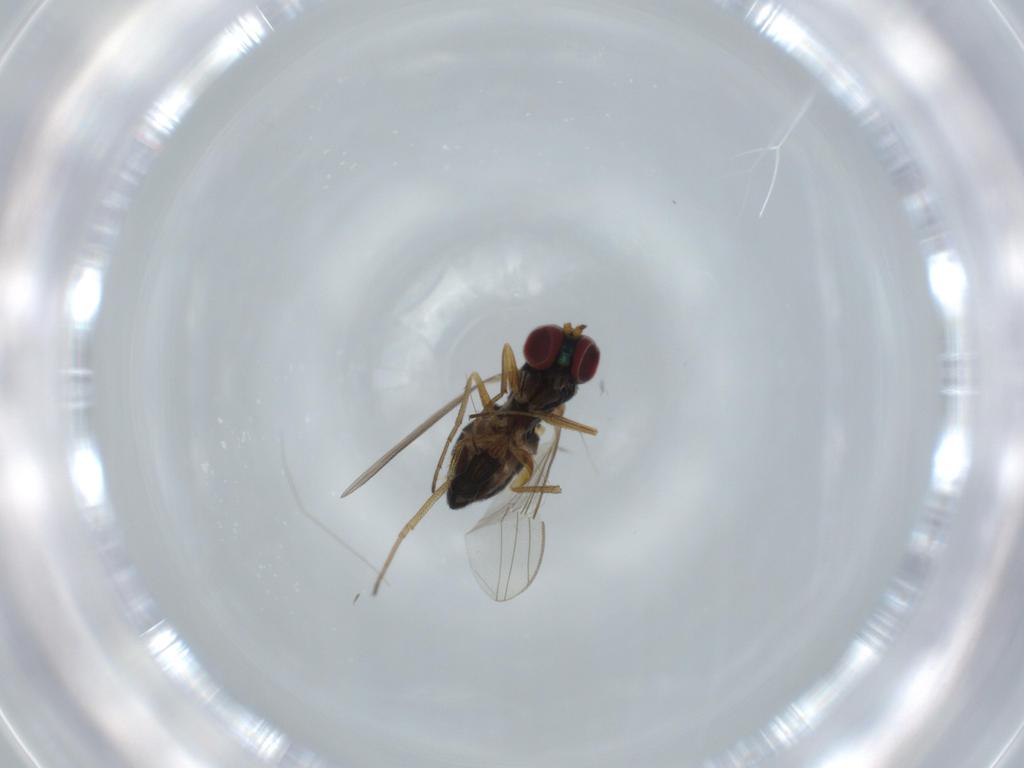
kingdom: Animalia
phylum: Arthropoda
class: Insecta
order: Diptera
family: Dolichopodidae
